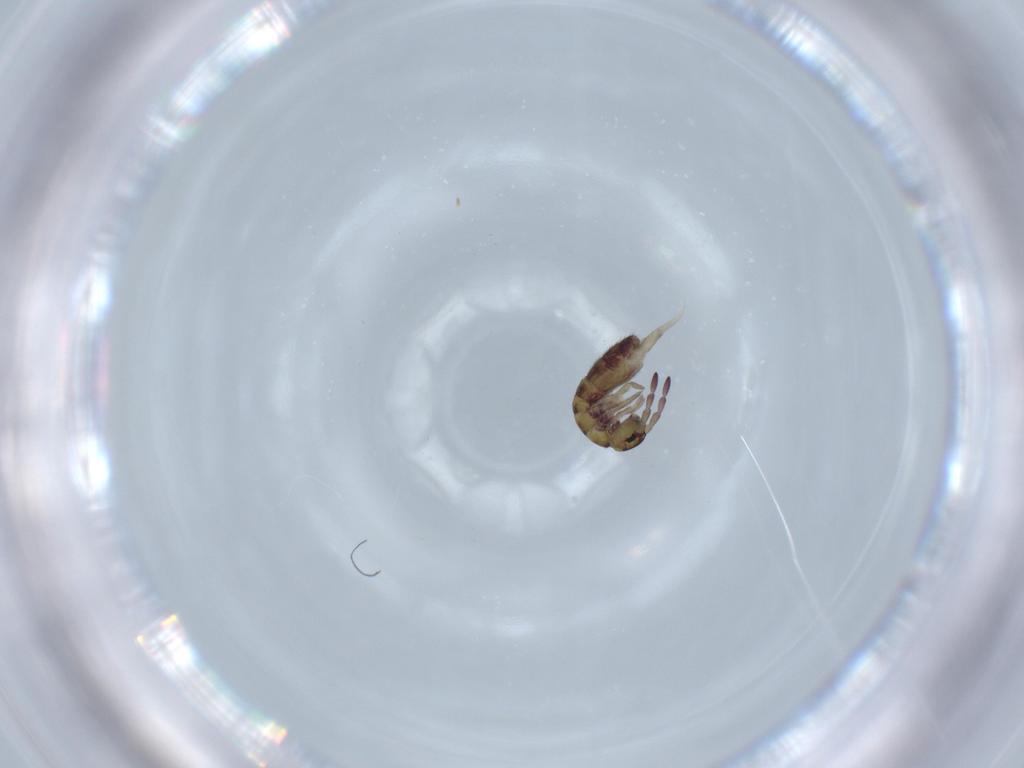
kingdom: Animalia
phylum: Arthropoda
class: Collembola
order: Entomobryomorpha
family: Isotomidae
